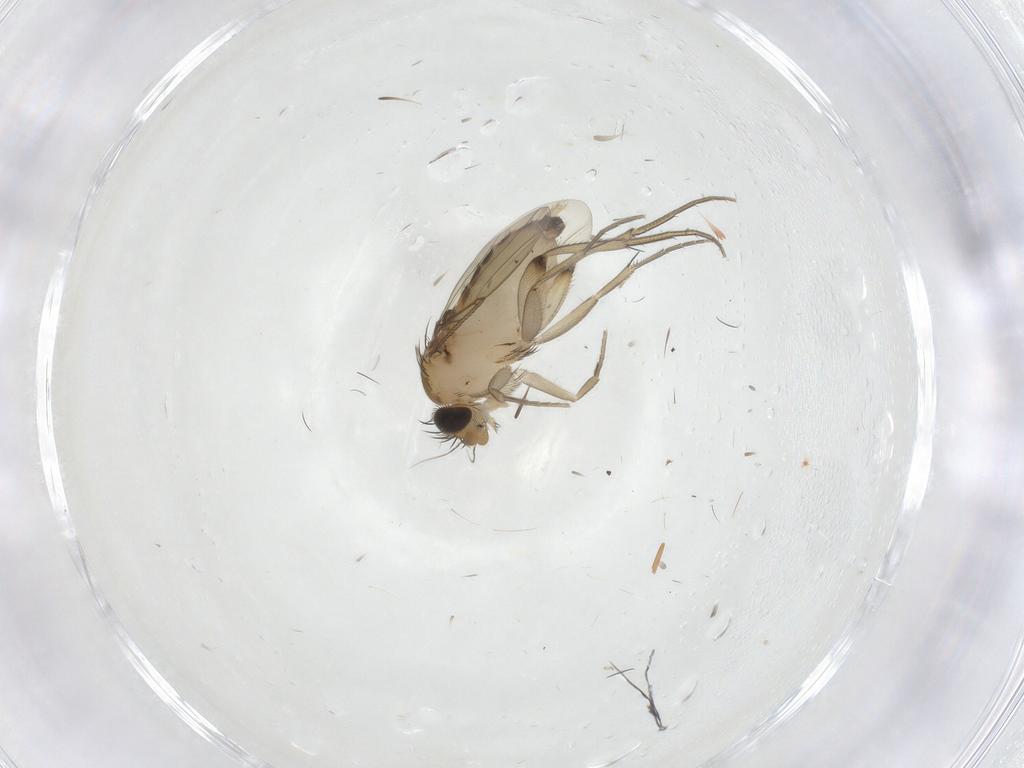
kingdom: Animalia
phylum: Arthropoda
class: Insecta
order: Diptera
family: Phoridae
